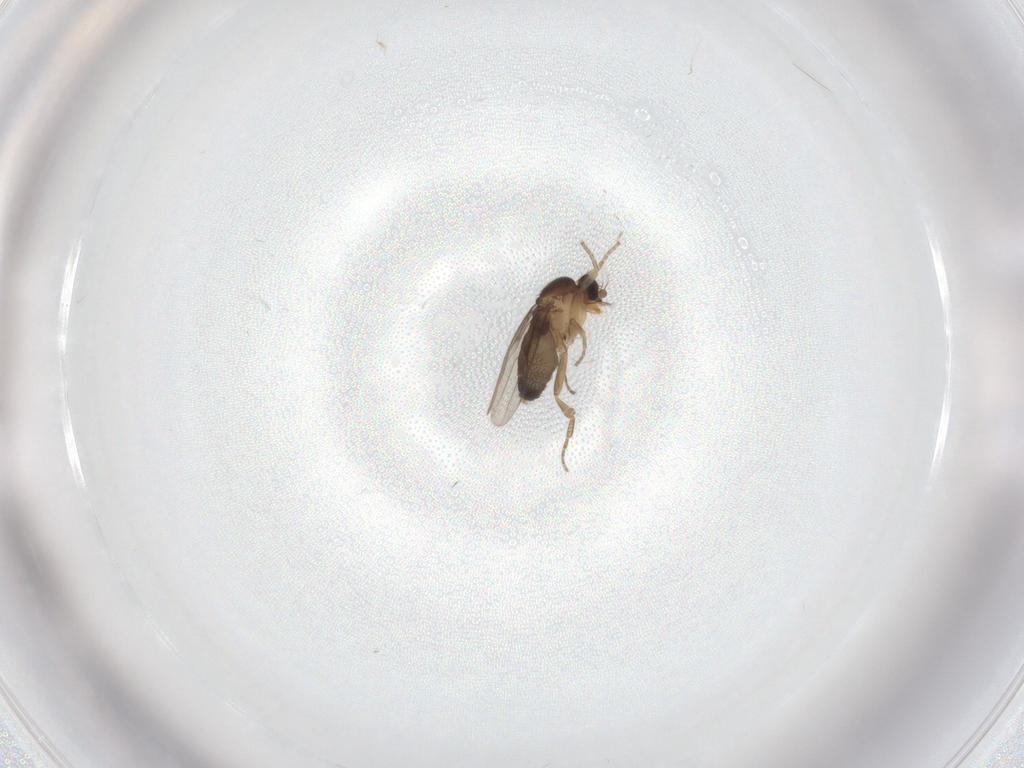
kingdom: Animalia
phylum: Arthropoda
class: Insecta
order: Diptera
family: Phoridae
